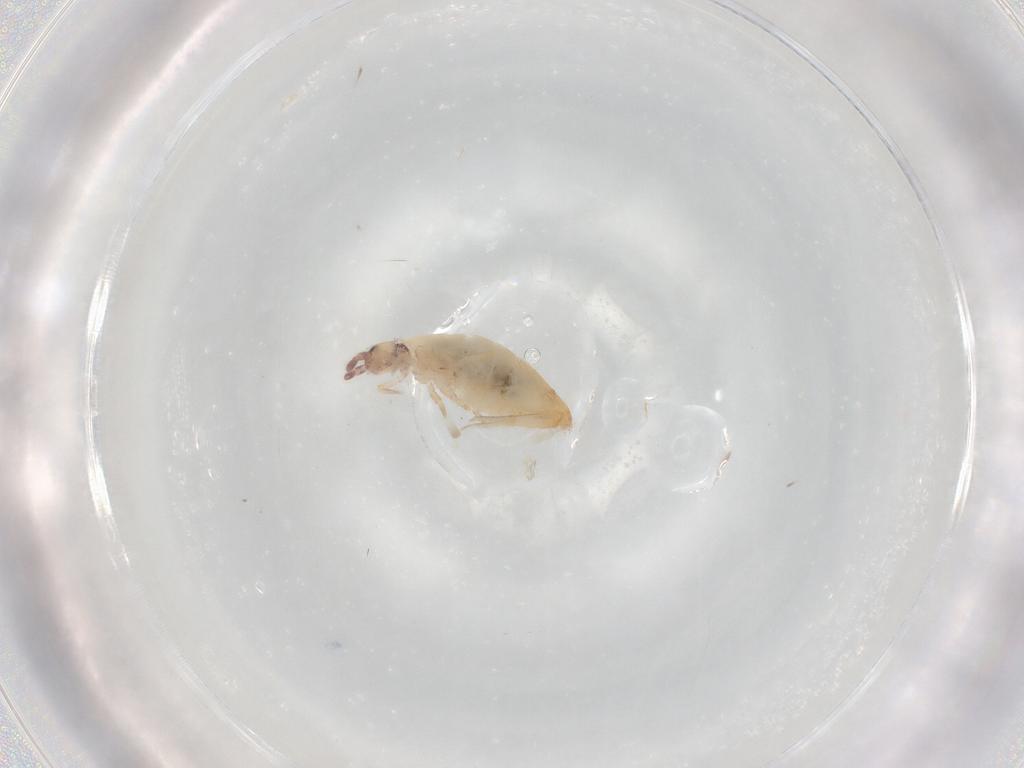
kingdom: Animalia
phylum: Arthropoda
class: Collembola
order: Entomobryomorpha
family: Entomobryidae
